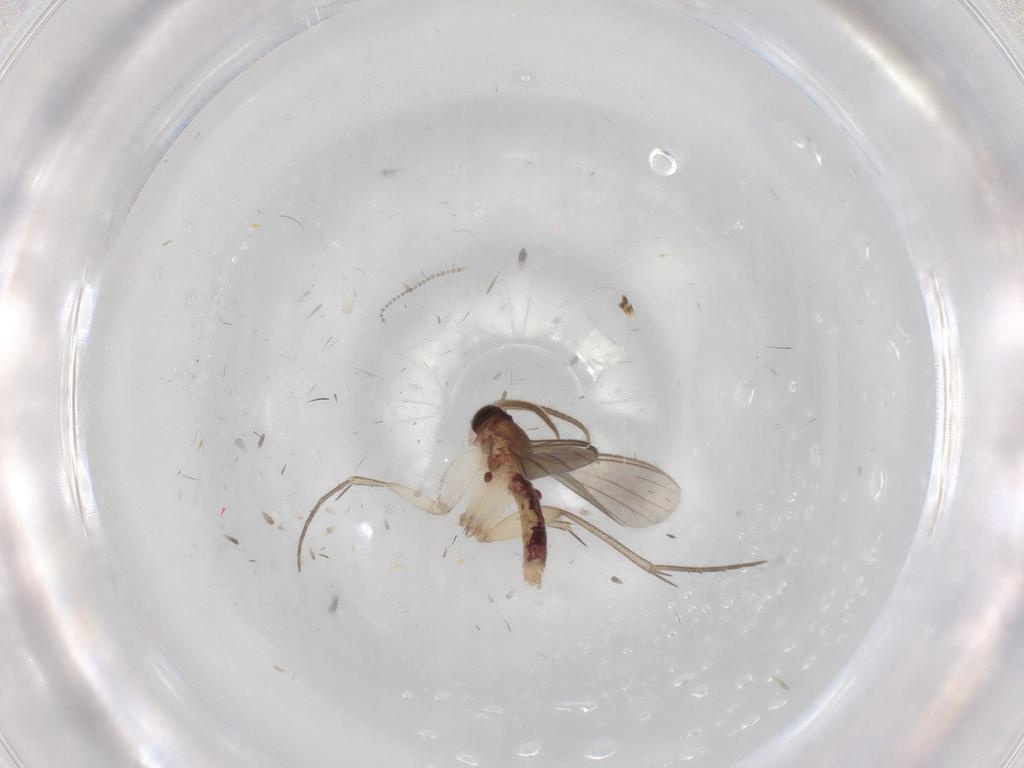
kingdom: Animalia
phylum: Arthropoda
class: Insecta
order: Diptera
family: Mycetophilidae
